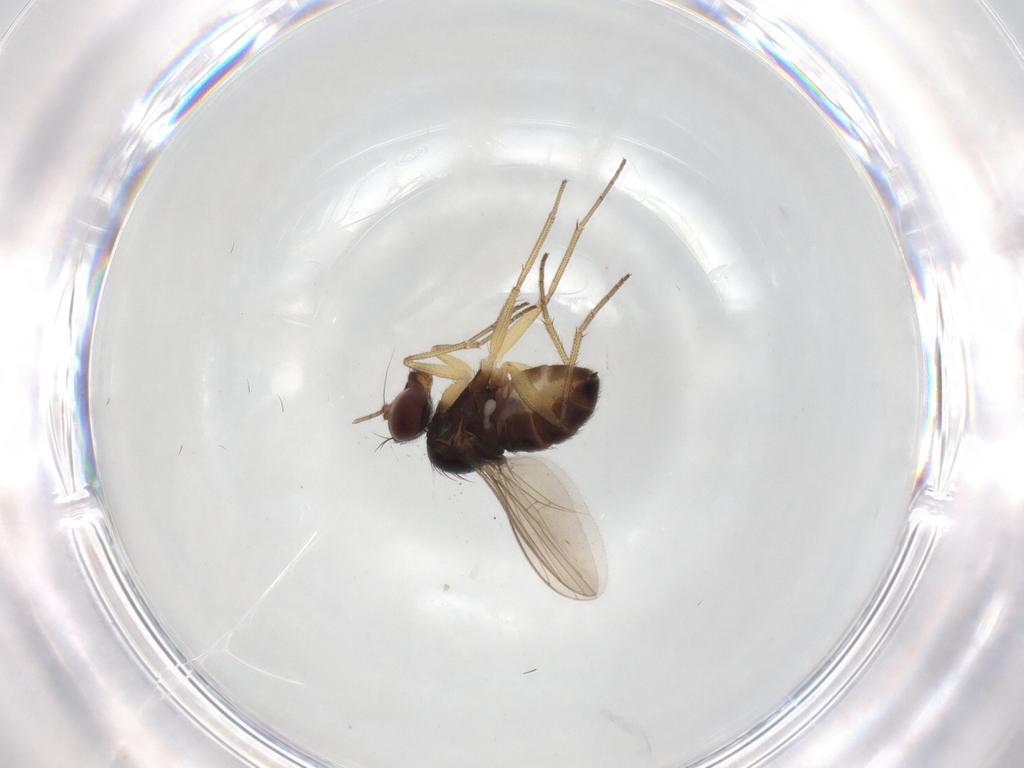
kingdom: Animalia
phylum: Arthropoda
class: Insecta
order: Diptera
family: Dolichopodidae
